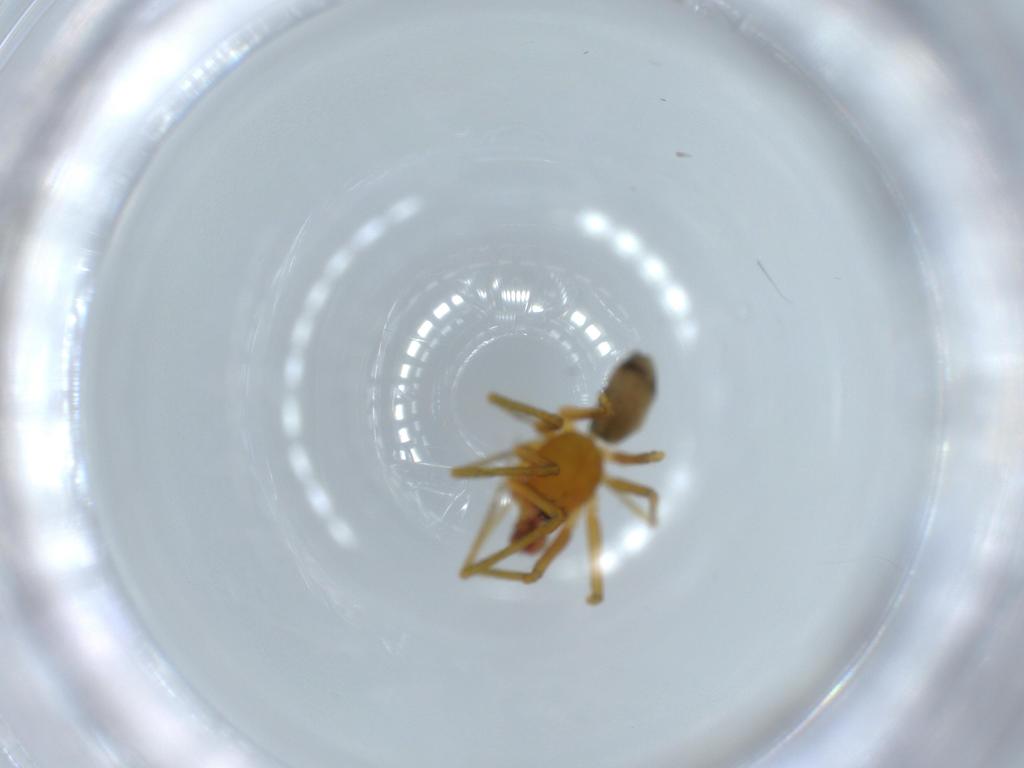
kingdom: Animalia
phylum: Arthropoda
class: Arachnida
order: Araneae
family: Linyphiidae
